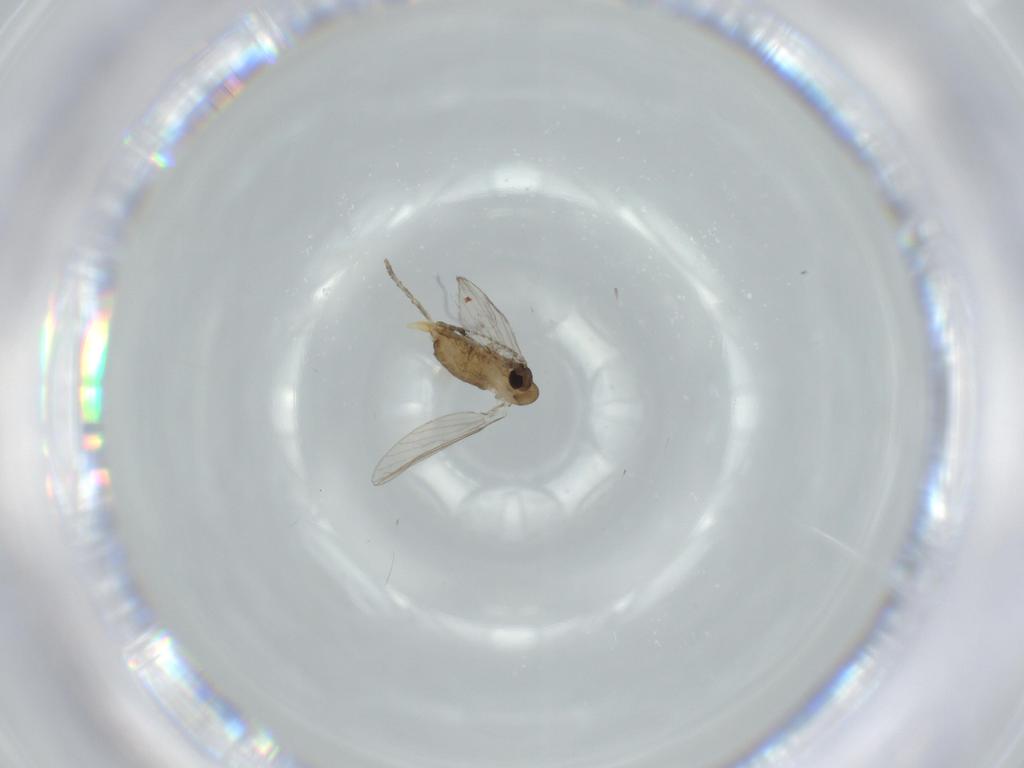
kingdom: Animalia
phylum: Arthropoda
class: Insecta
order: Diptera
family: Psychodidae
